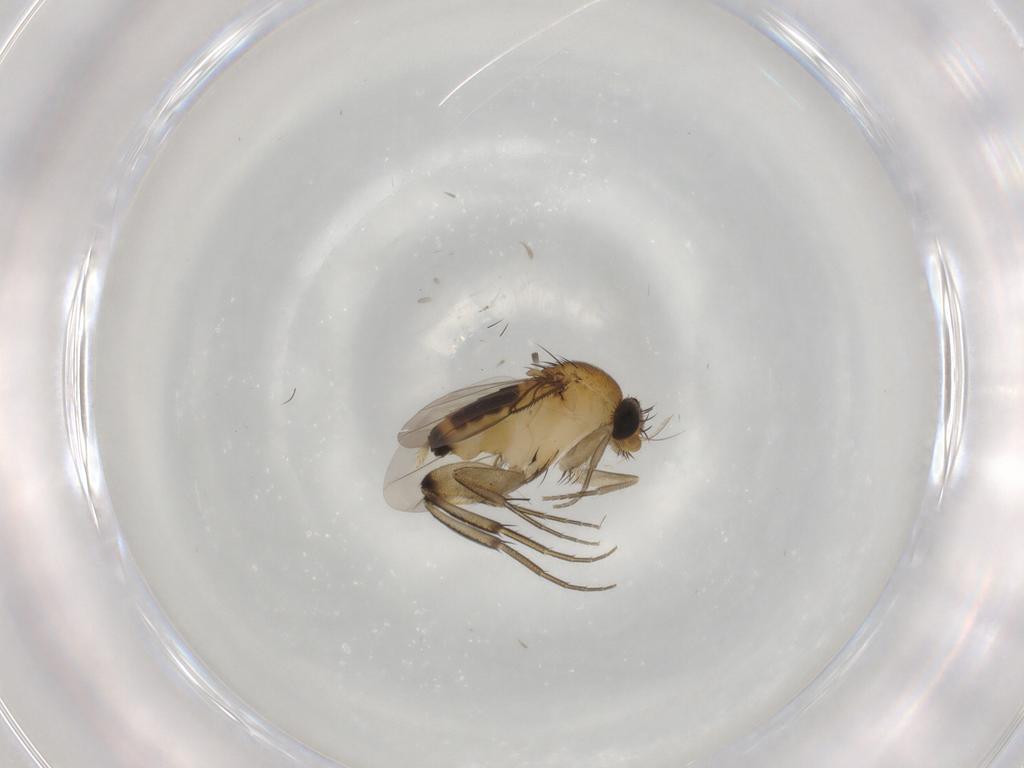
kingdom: Animalia
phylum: Arthropoda
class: Insecta
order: Diptera
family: Phoridae
